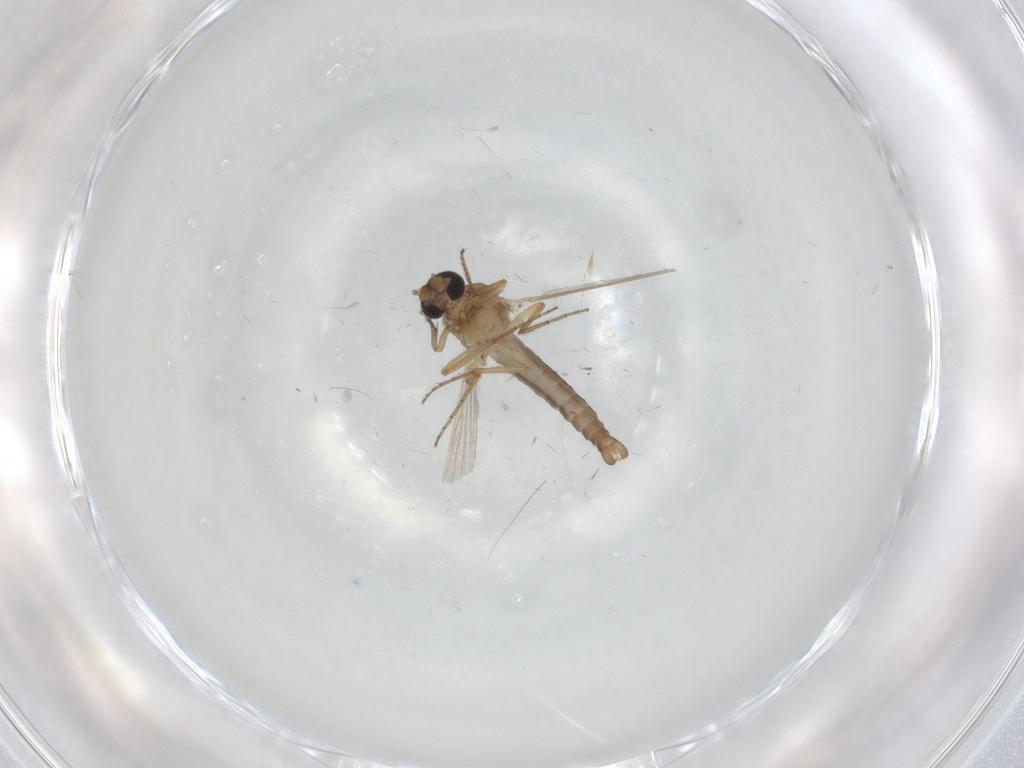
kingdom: Animalia
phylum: Arthropoda
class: Insecta
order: Diptera
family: Ceratopogonidae
